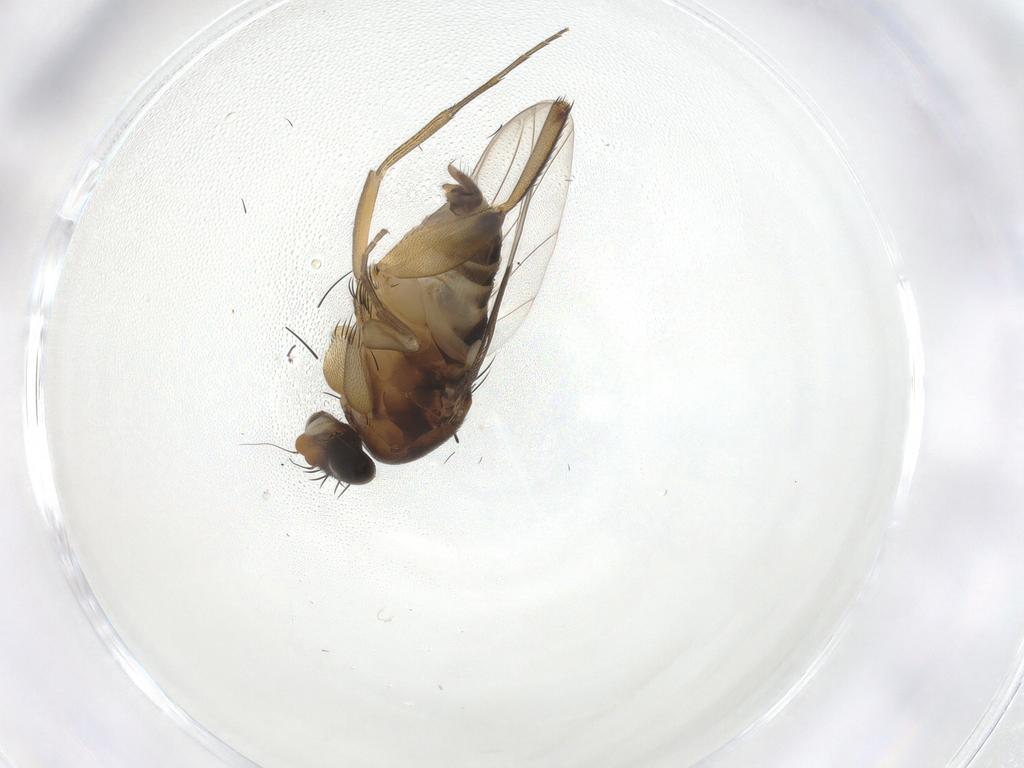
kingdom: Animalia
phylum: Arthropoda
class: Insecta
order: Diptera
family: Phoridae
